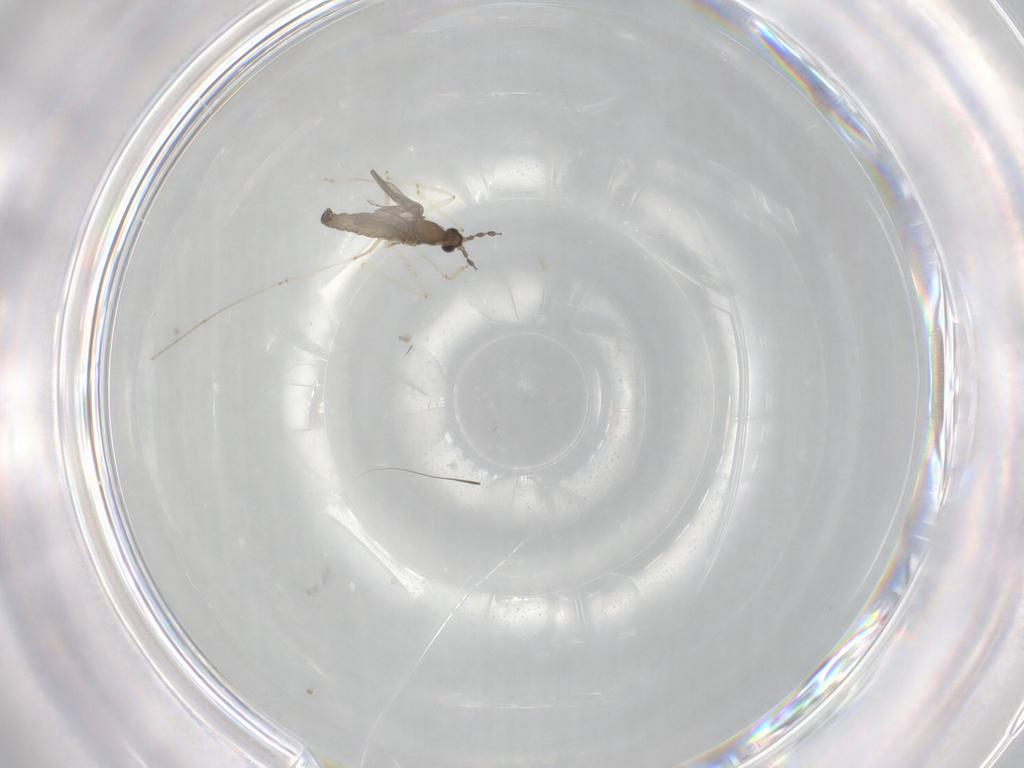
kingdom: Animalia
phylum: Arthropoda
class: Insecta
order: Diptera
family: Cecidomyiidae
